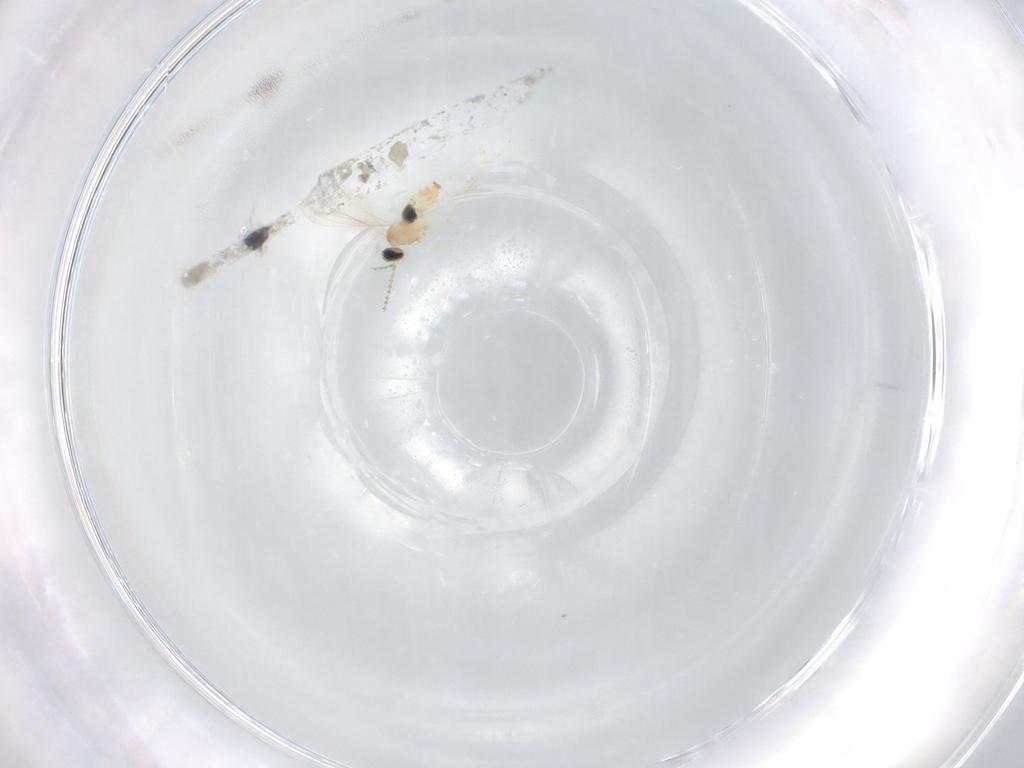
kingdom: Animalia
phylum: Arthropoda
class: Insecta
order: Diptera
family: Cecidomyiidae
